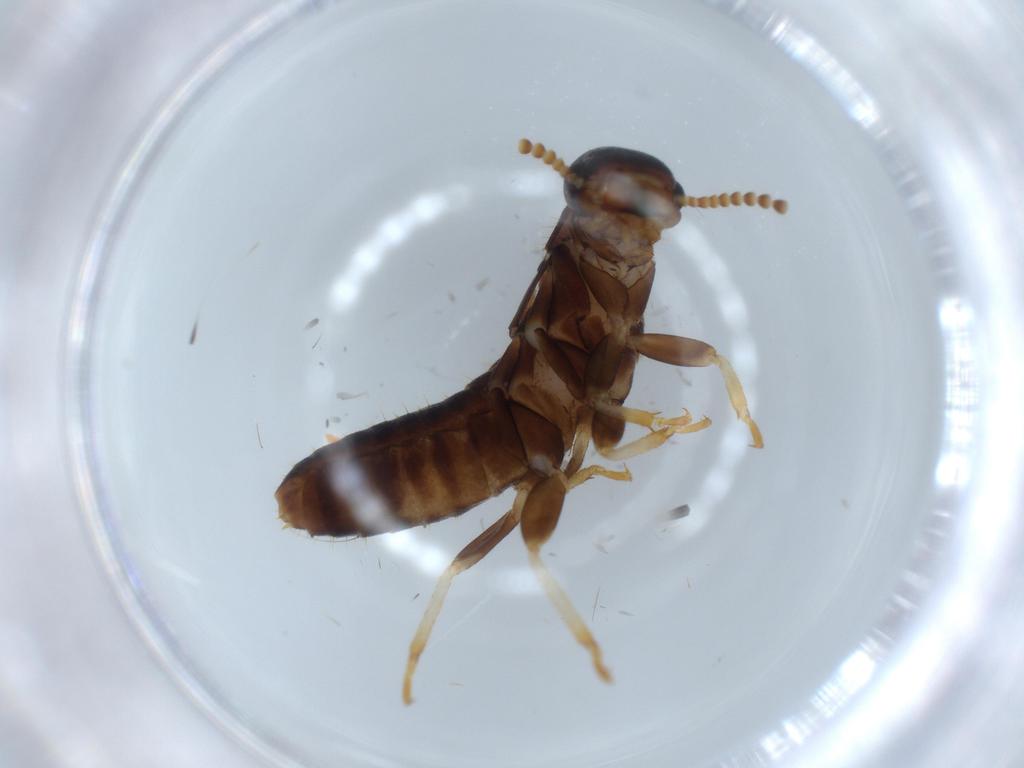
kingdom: Animalia
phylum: Arthropoda
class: Insecta
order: Blattodea
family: Kalotermitidae
